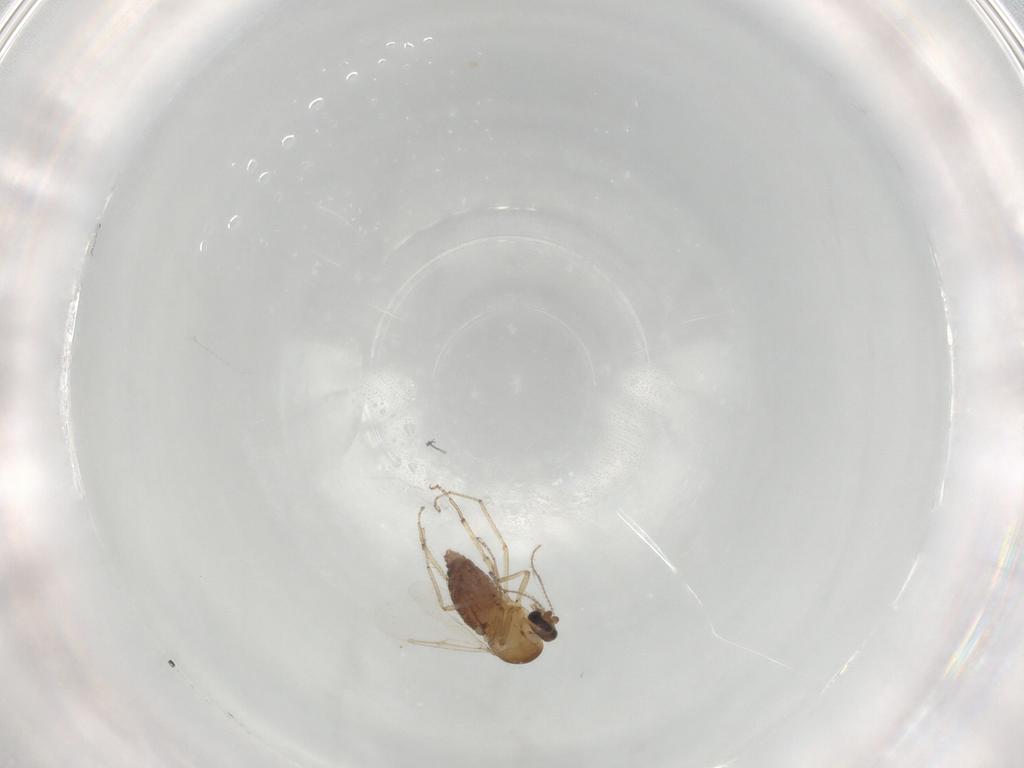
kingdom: Animalia
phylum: Arthropoda
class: Insecta
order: Diptera
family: Ceratopogonidae
